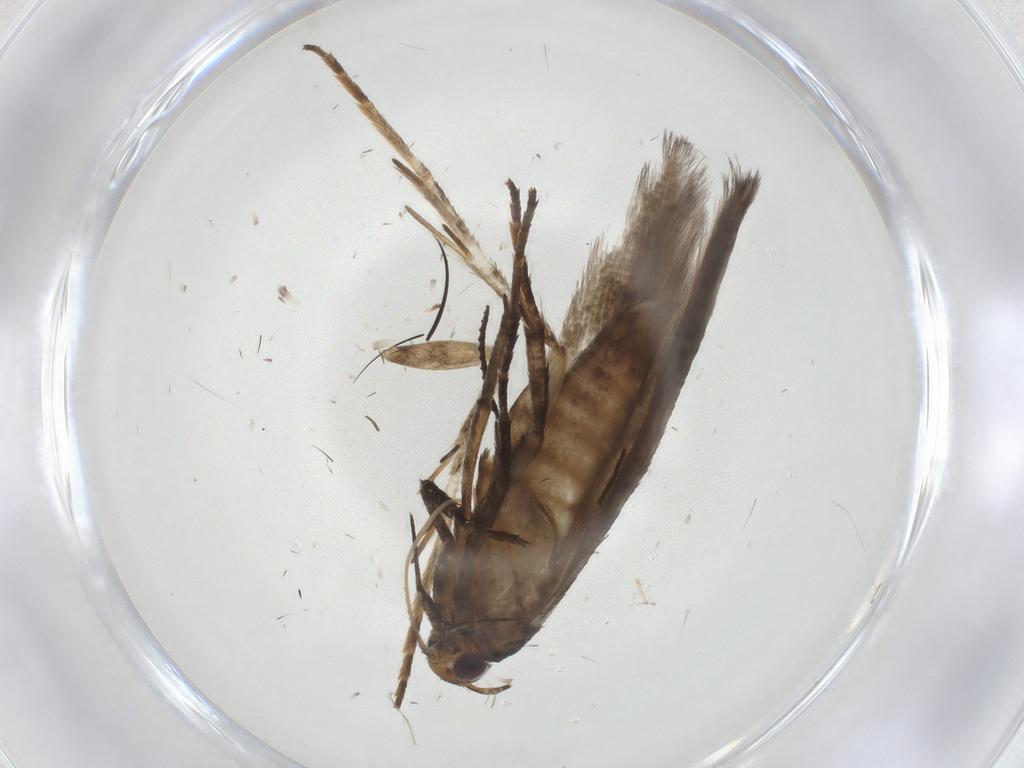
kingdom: Animalia
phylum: Arthropoda
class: Insecta
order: Lepidoptera
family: Gelechiidae
